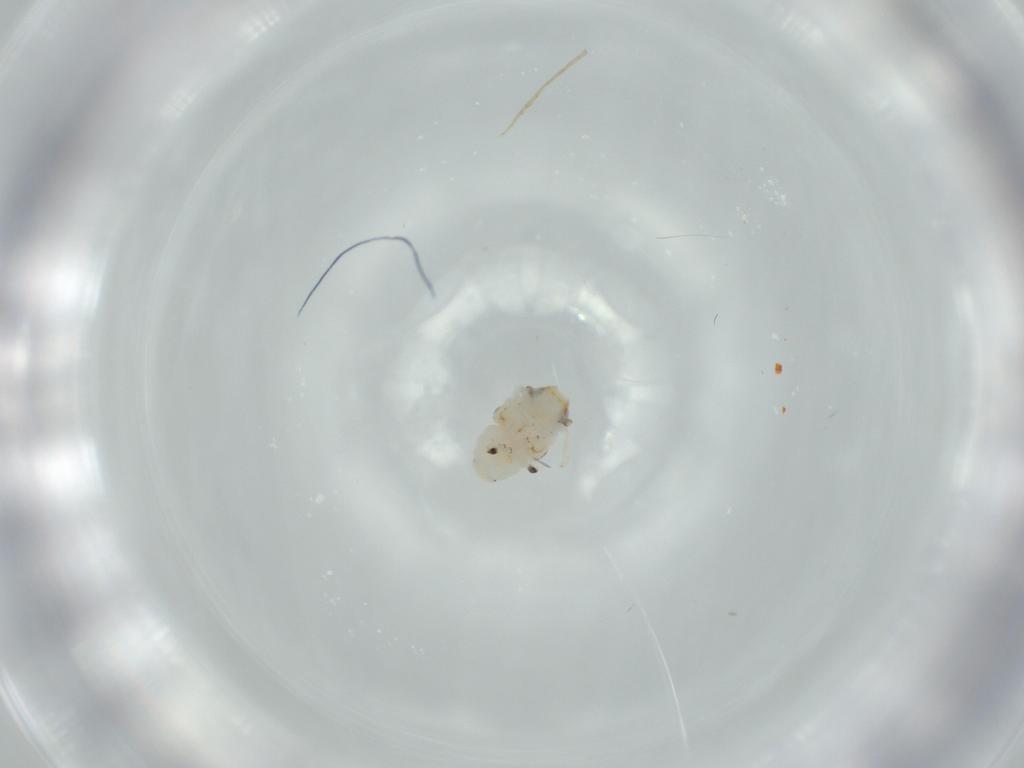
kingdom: Animalia
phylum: Arthropoda
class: Insecta
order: Hemiptera
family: Nogodinidae
